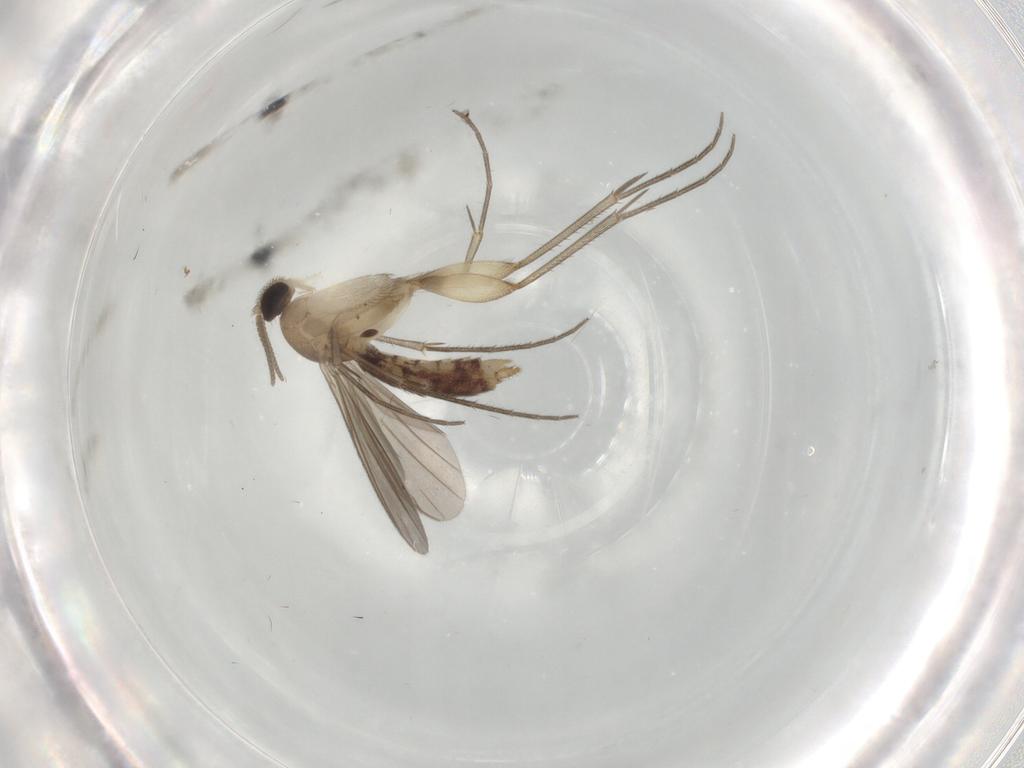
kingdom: Animalia
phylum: Arthropoda
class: Insecta
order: Diptera
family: Mycetophilidae
